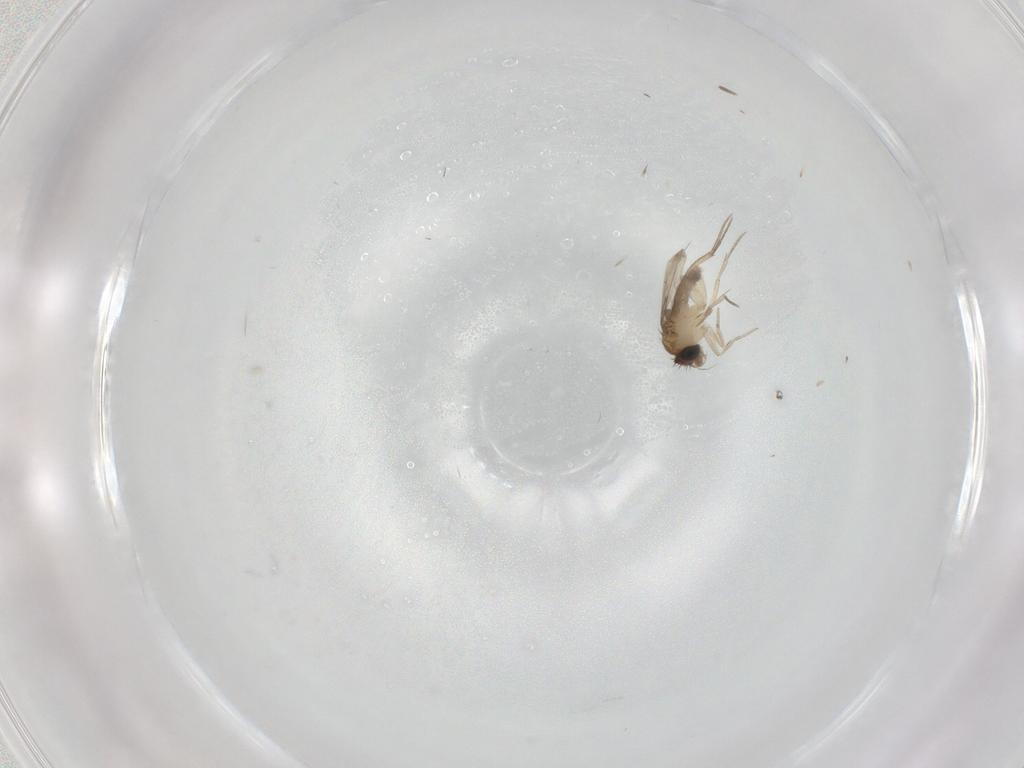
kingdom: Animalia
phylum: Arthropoda
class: Insecta
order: Diptera
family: Phoridae
